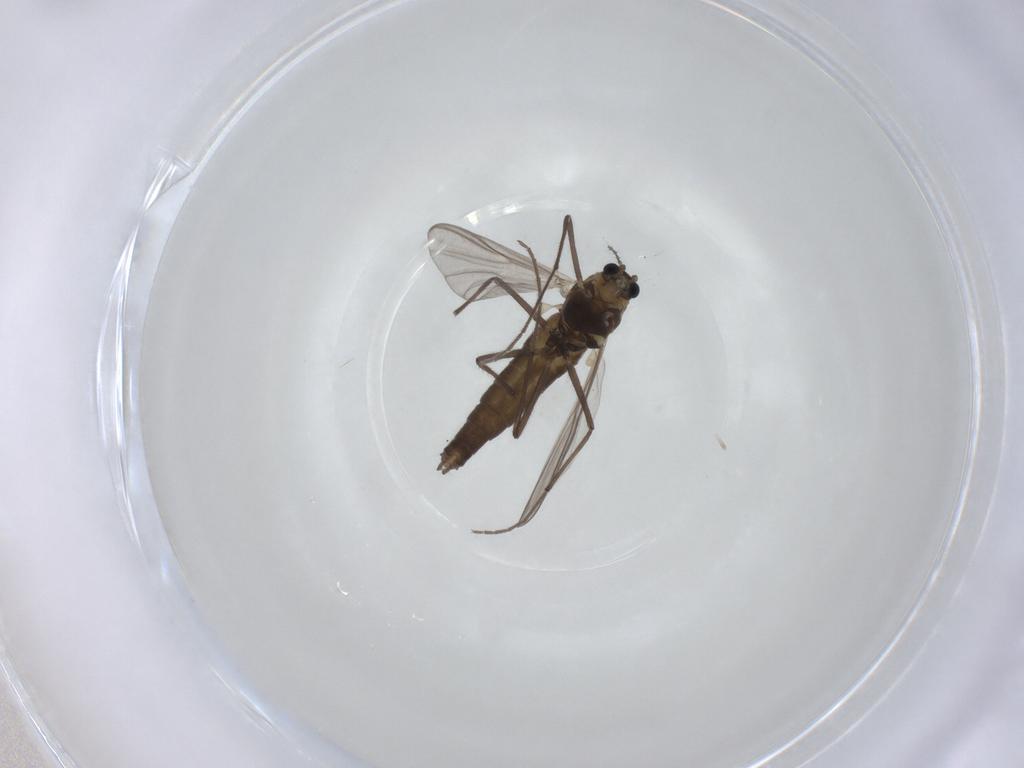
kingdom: Animalia
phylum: Arthropoda
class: Insecta
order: Diptera
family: Chironomidae
